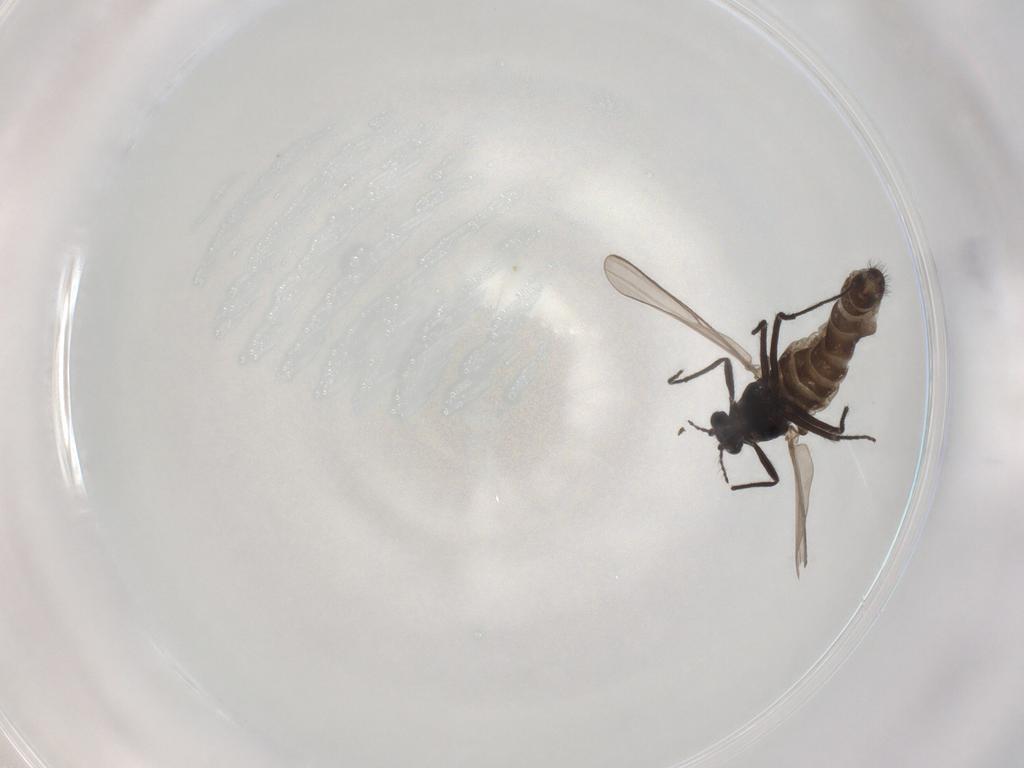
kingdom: Animalia
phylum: Arthropoda
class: Insecta
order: Diptera
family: Chironomidae
